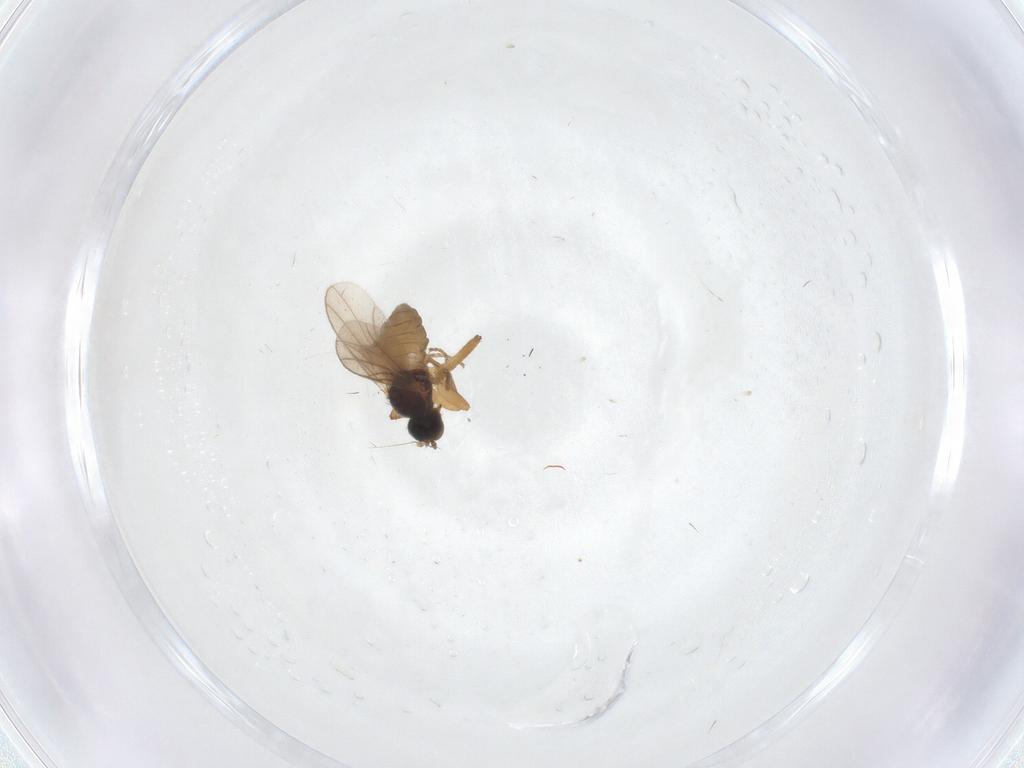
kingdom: Animalia
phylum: Arthropoda
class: Insecta
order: Diptera
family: Hybotidae
